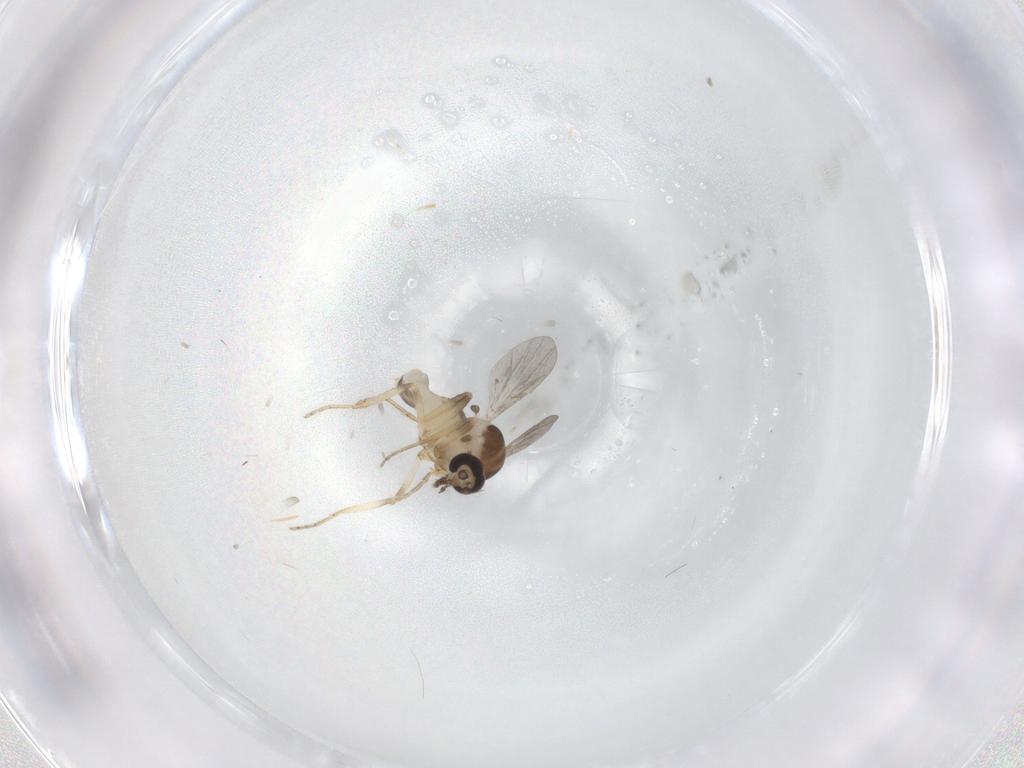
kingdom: Animalia
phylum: Arthropoda
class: Insecta
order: Diptera
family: Ceratopogonidae
